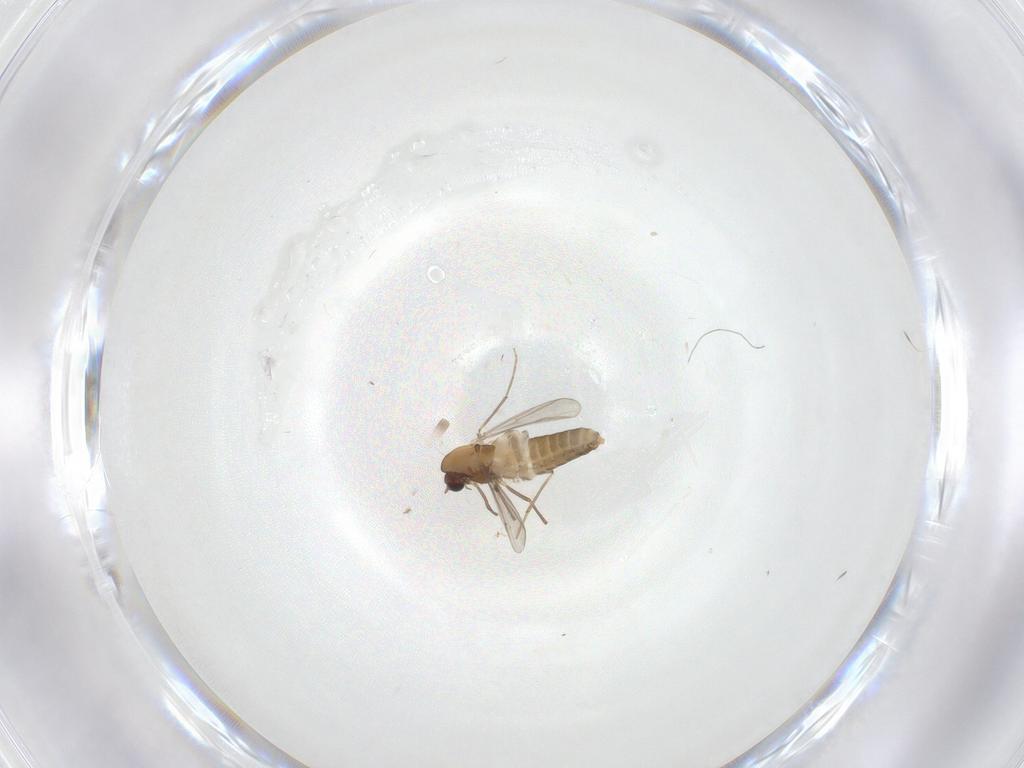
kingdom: Animalia
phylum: Arthropoda
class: Insecta
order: Diptera
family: Chironomidae
